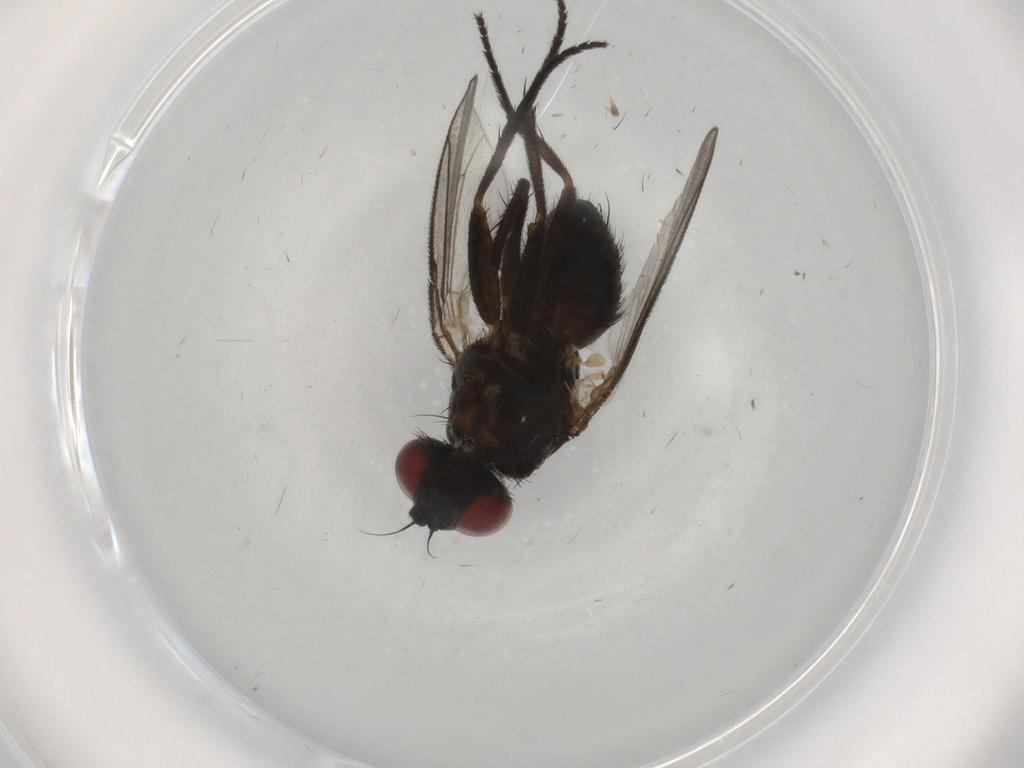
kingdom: Animalia
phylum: Arthropoda
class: Insecta
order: Diptera
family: Muscidae
